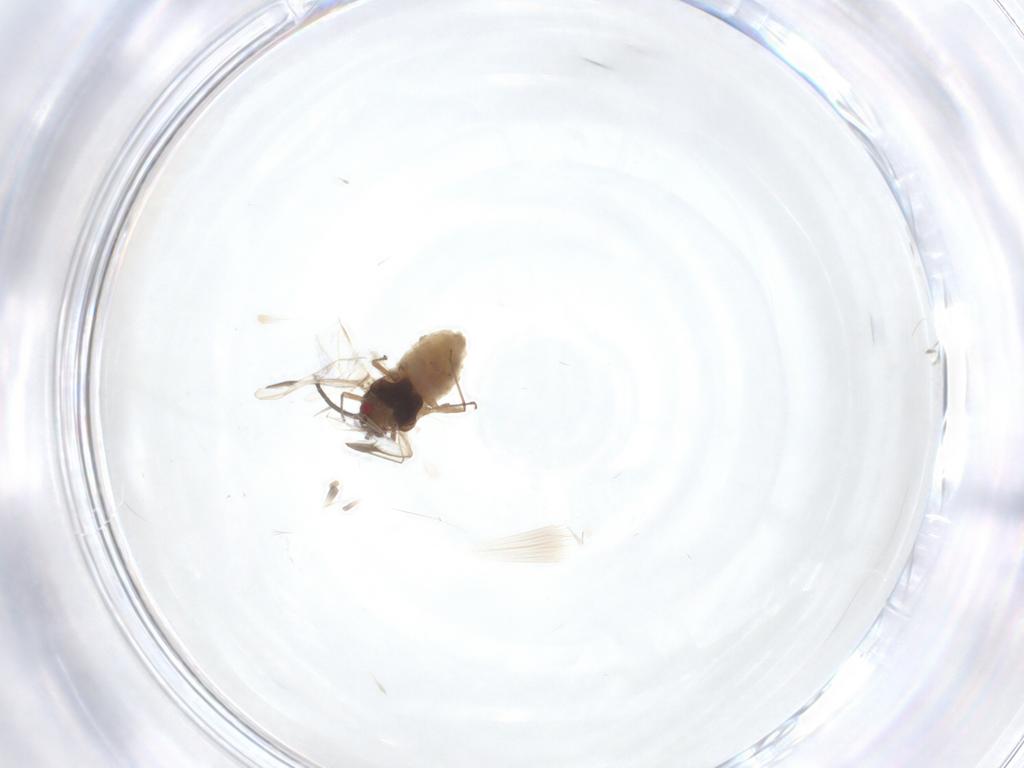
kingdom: Animalia
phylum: Arthropoda
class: Insecta
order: Hemiptera
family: Aphididae
